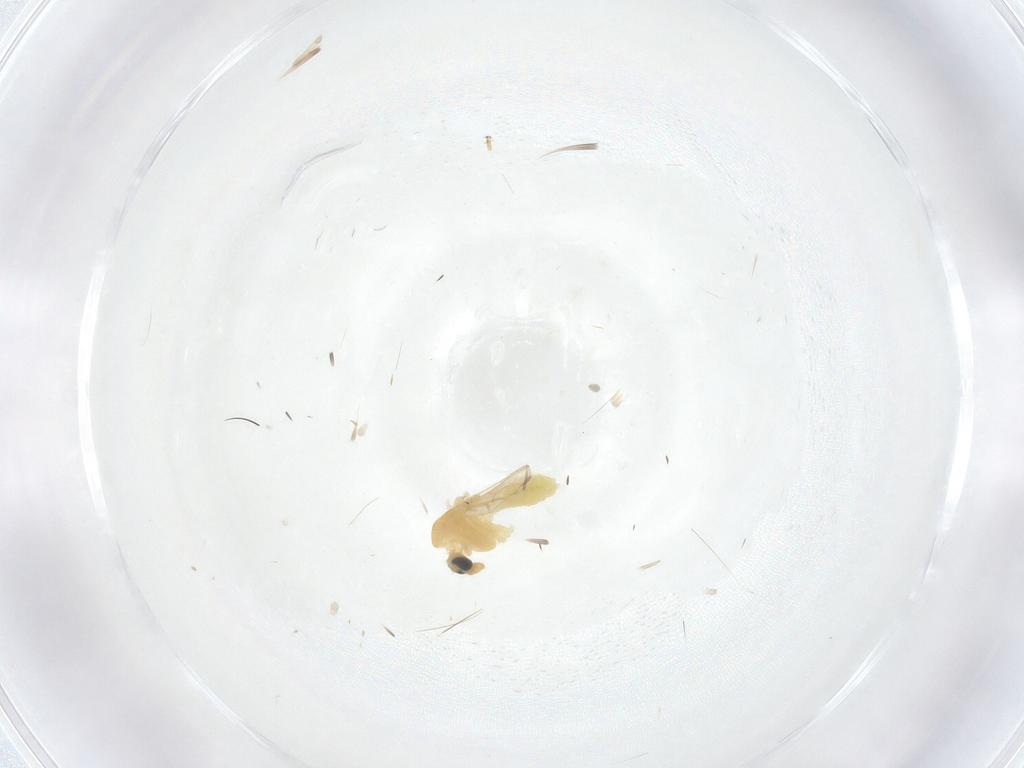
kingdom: Animalia
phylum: Arthropoda
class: Insecta
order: Diptera
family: Chironomidae
